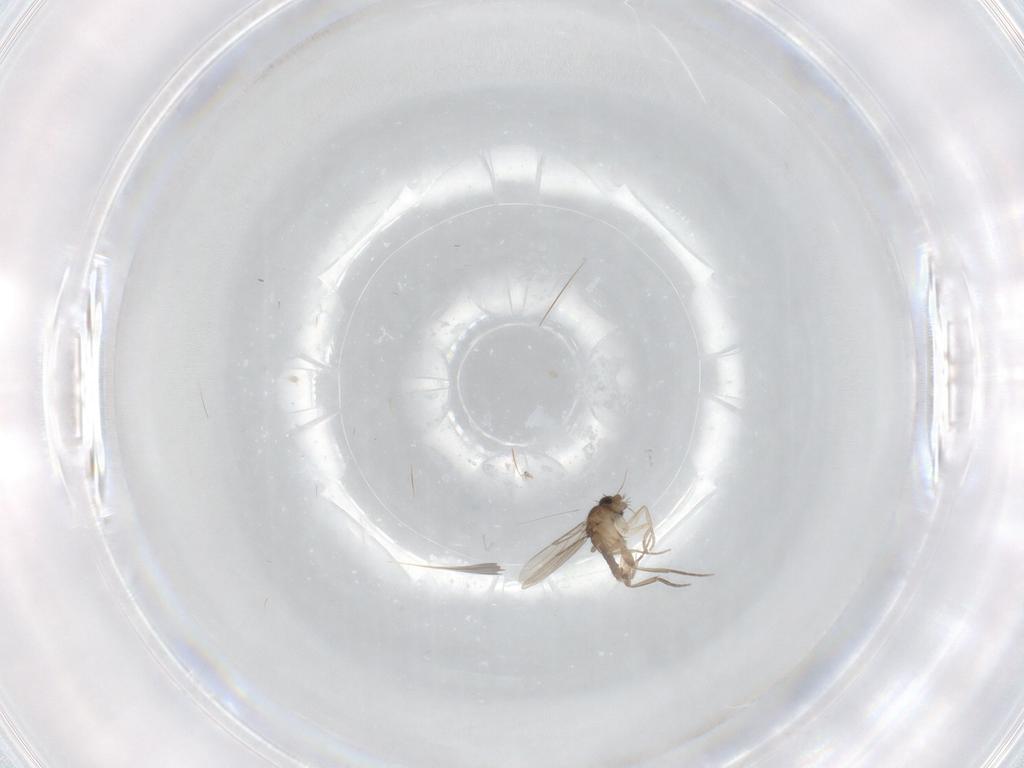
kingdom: Animalia
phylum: Arthropoda
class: Insecta
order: Diptera
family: Phoridae
